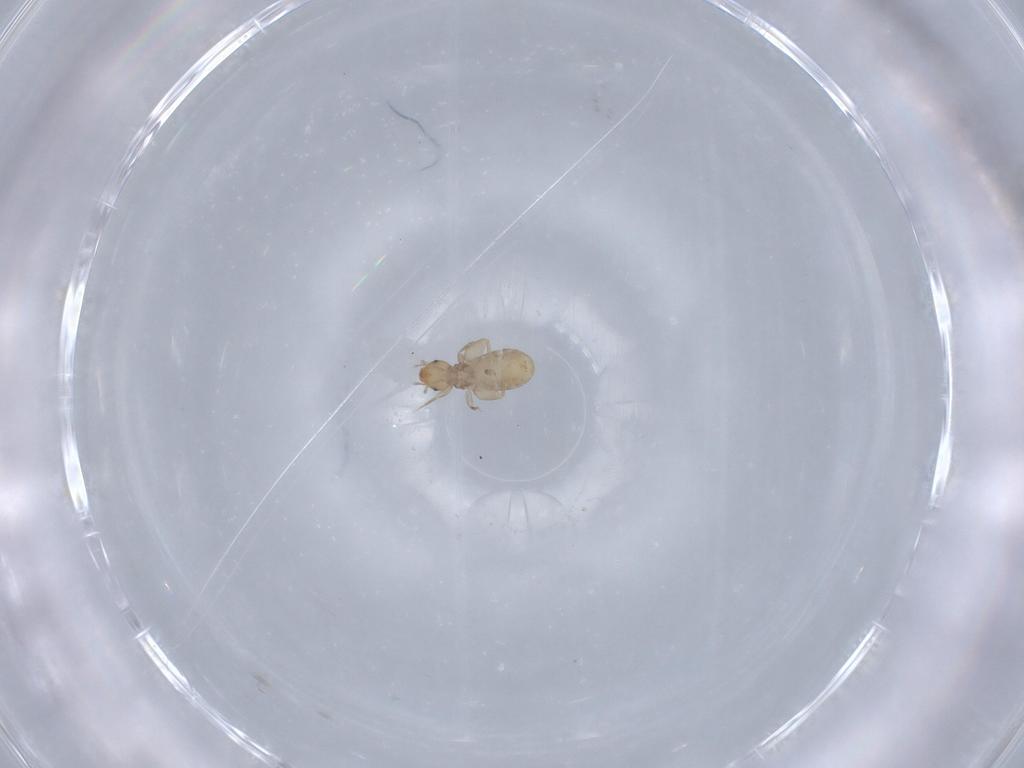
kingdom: Animalia
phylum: Arthropoda
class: Insecta
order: Psocodea
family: Liposcelididae
